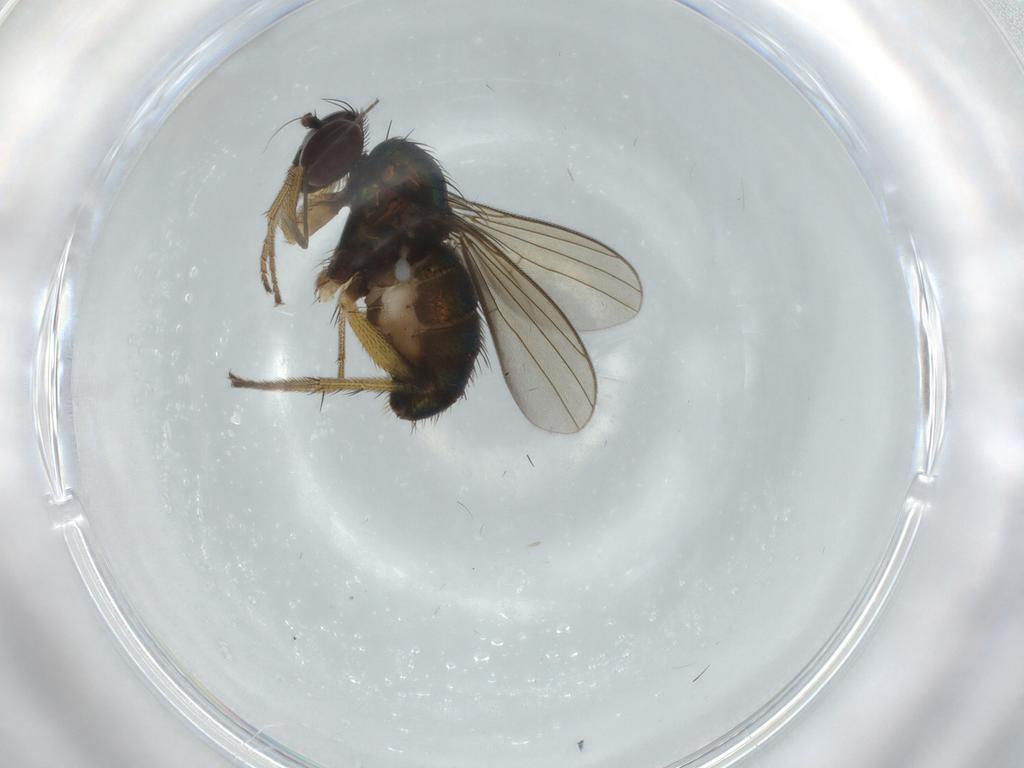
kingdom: Animalia
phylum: Arthropoda
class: Insecta
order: Diptera
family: Dolichopodidae
